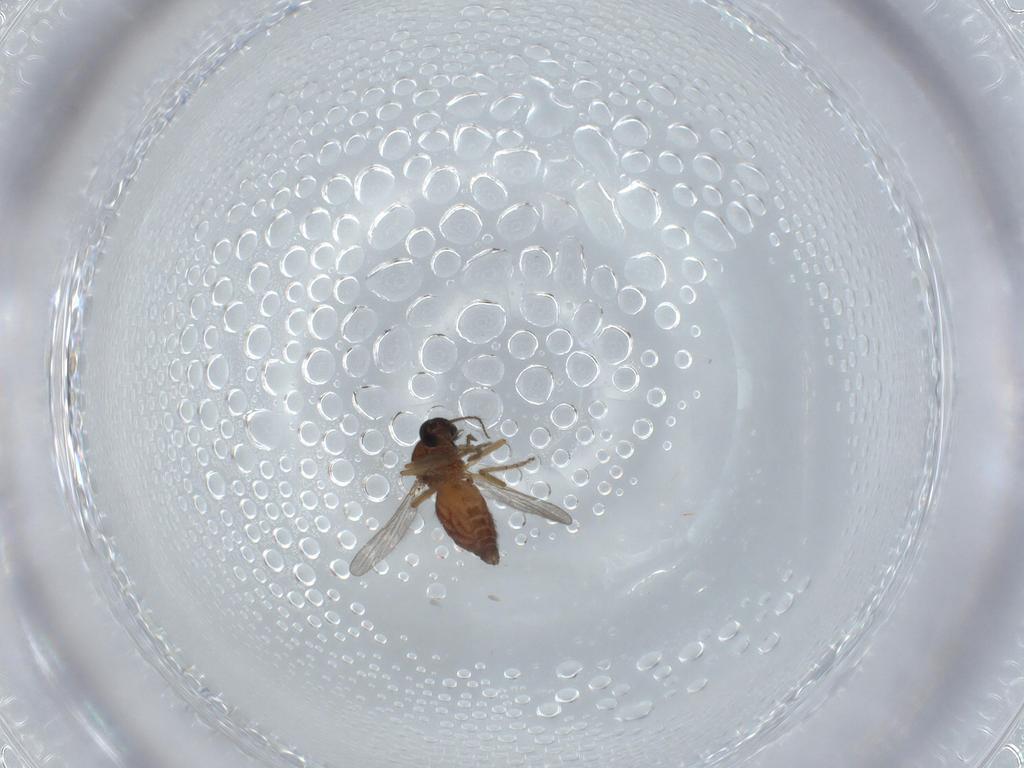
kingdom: Animalia
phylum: Arthropoda
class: Insecta
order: Diptera
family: Ceratopogonidae
